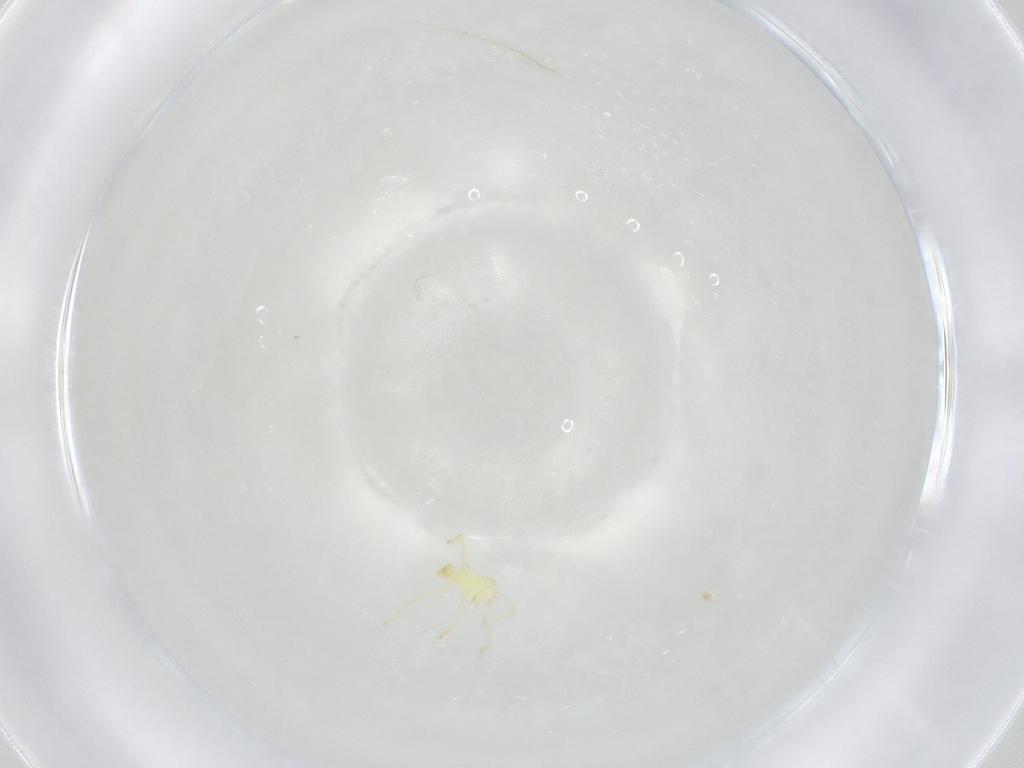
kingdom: Animalia
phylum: Arthropoda
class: Arachnida
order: Trombidiformes
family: Erythraeidae
